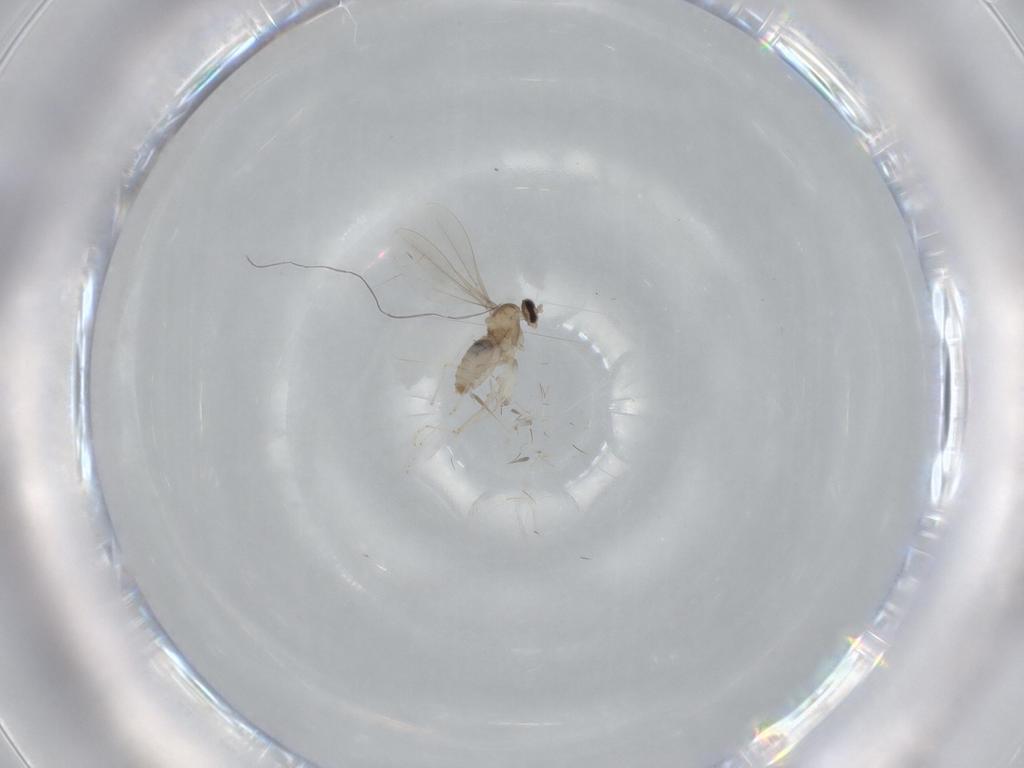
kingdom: Animalia
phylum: Arthropoda
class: Insecta
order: Diptera
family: Cecidomyiidae
